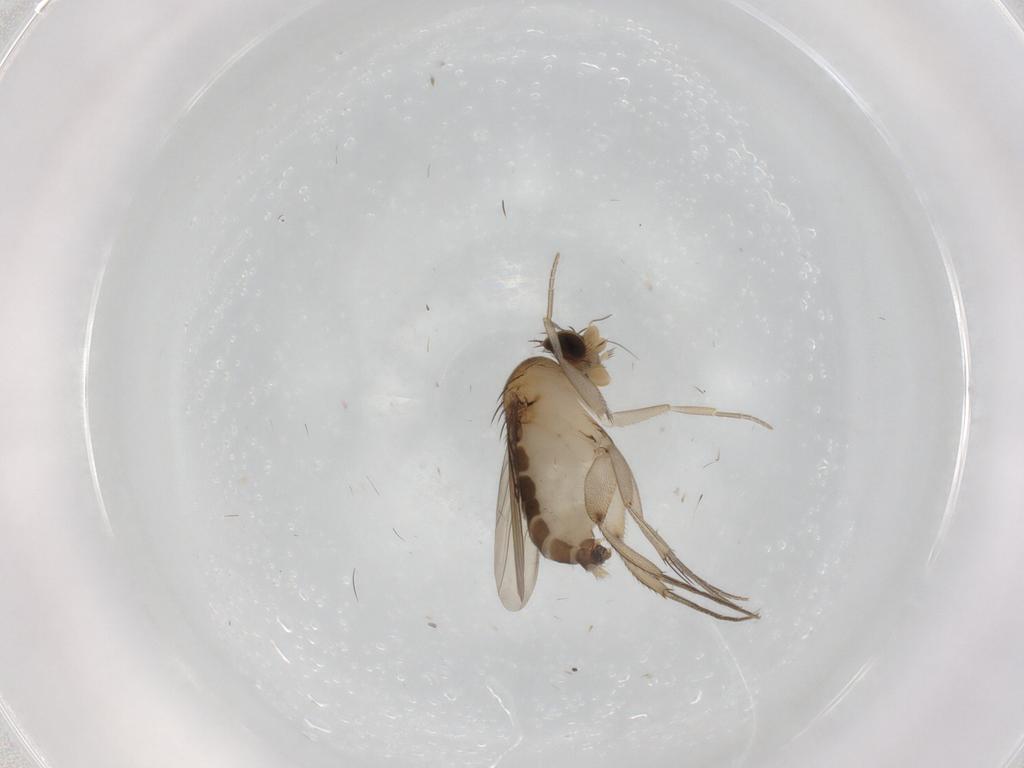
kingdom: Animalia
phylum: Arthropoda
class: Insecta
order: Diptera
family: Phoridae
